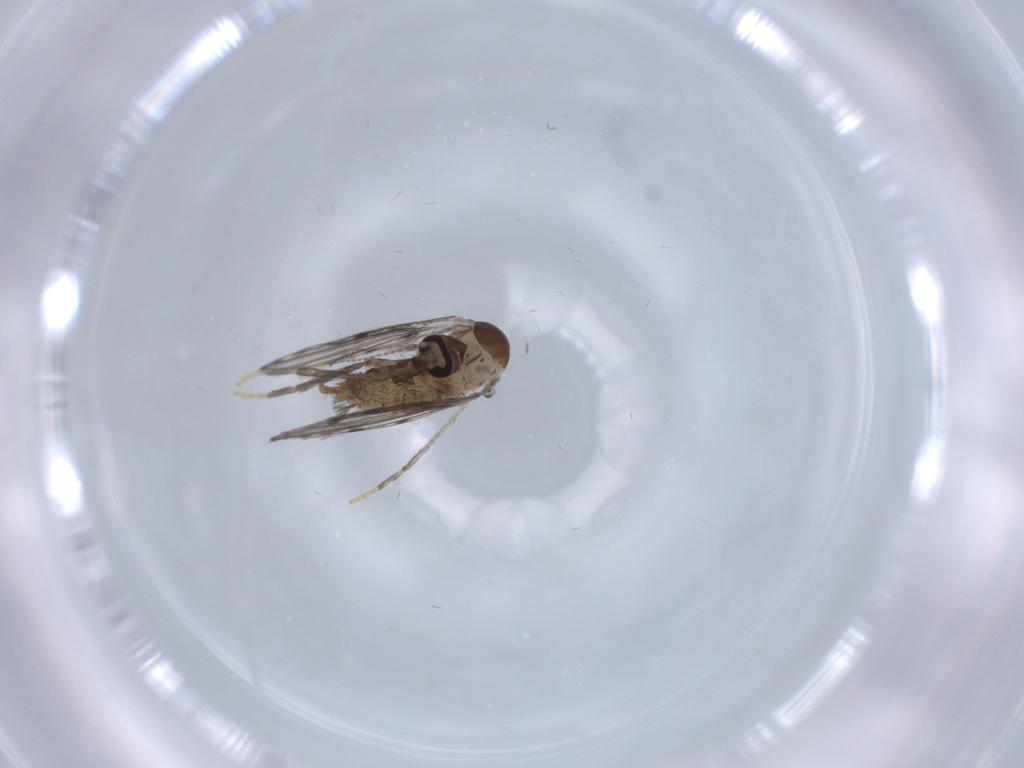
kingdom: Animalia
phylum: Arthropoda
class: Insecta
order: Diptera
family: Psychodidae
